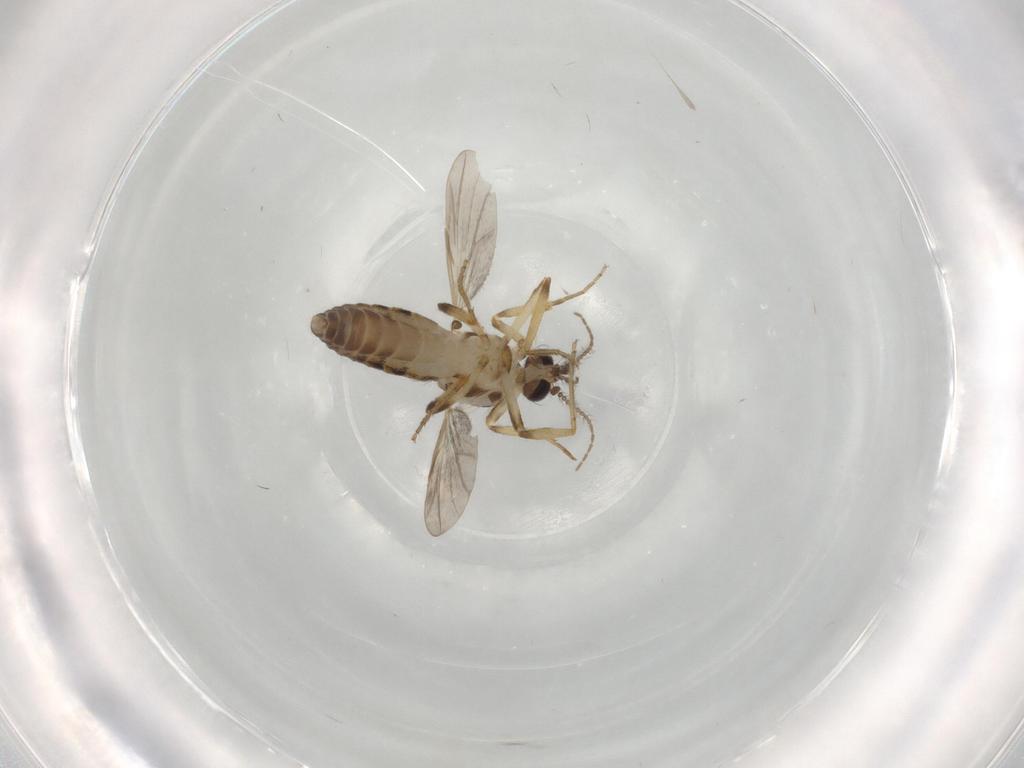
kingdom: Animalia
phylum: Arthropoda
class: Insecta
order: Diptera
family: Ceratopogonidae
